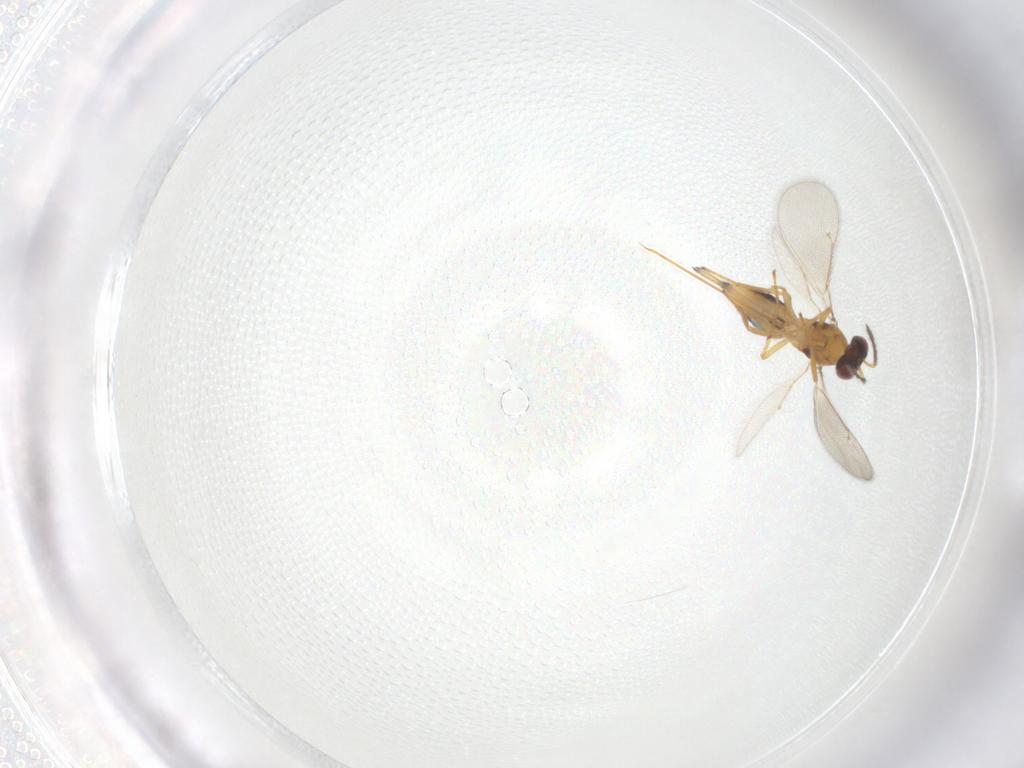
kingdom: Animalia
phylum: Arthropoda
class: Insecta
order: Hymenoptera
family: Eulophidae
